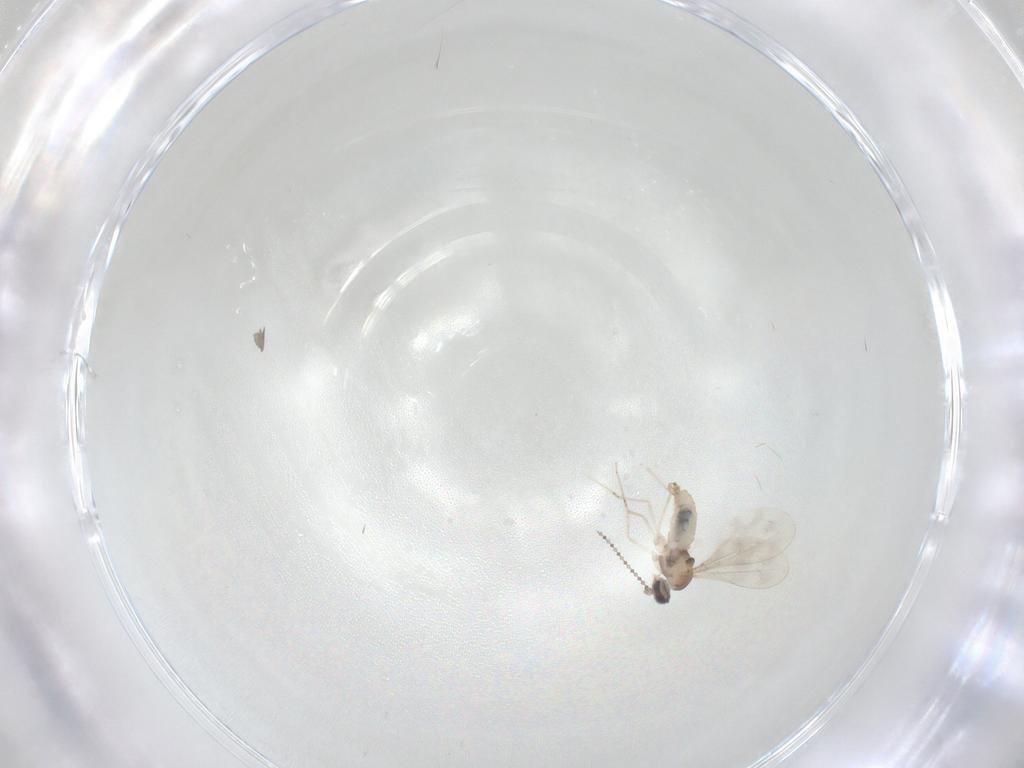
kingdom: Animalia
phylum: Arthropoda
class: Insecta
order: Diptera
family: Cecidomyiidae
